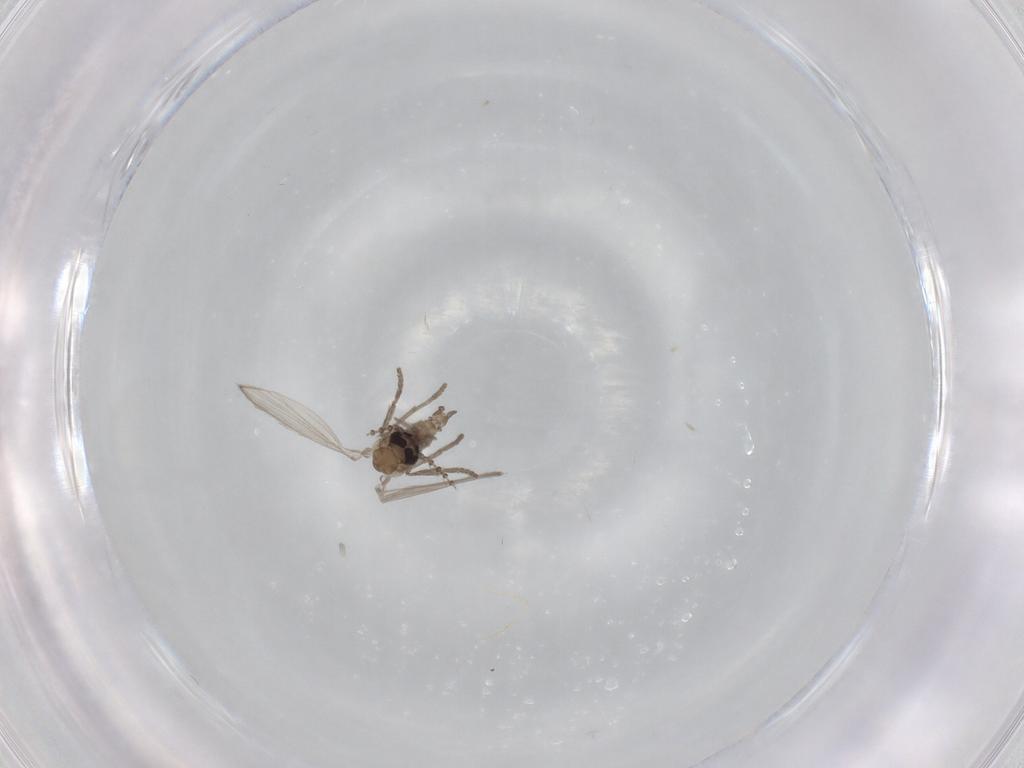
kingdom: Animalia
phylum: Arthropoda
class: Insecta
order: Diptera
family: Psychodidae
